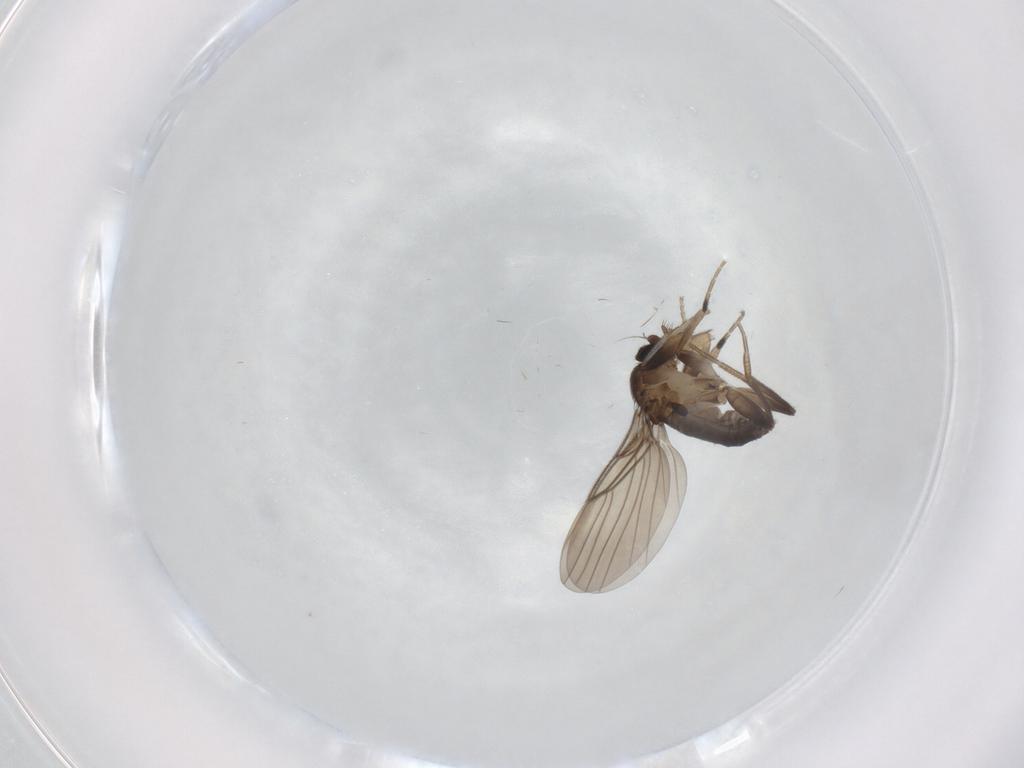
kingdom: Animalia
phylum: Arthropoda
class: Insecta
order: Diptera
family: Phoridae
